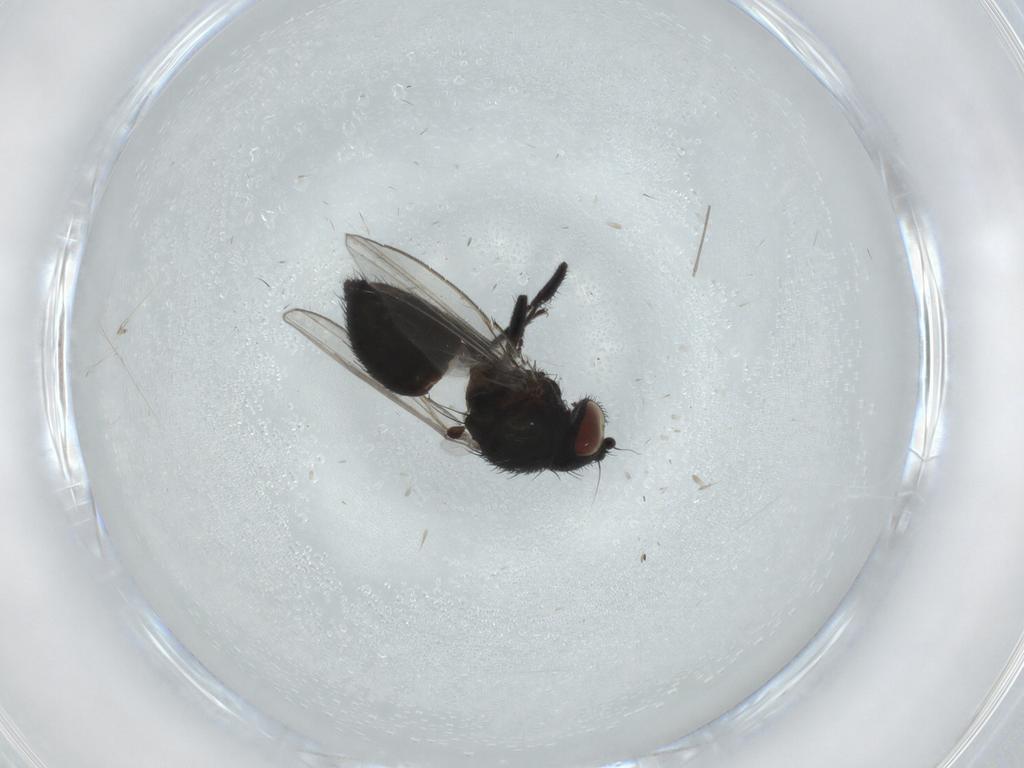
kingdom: Animalia
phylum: Arthropoda
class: Insecta
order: Diptera
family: Milichiidae
